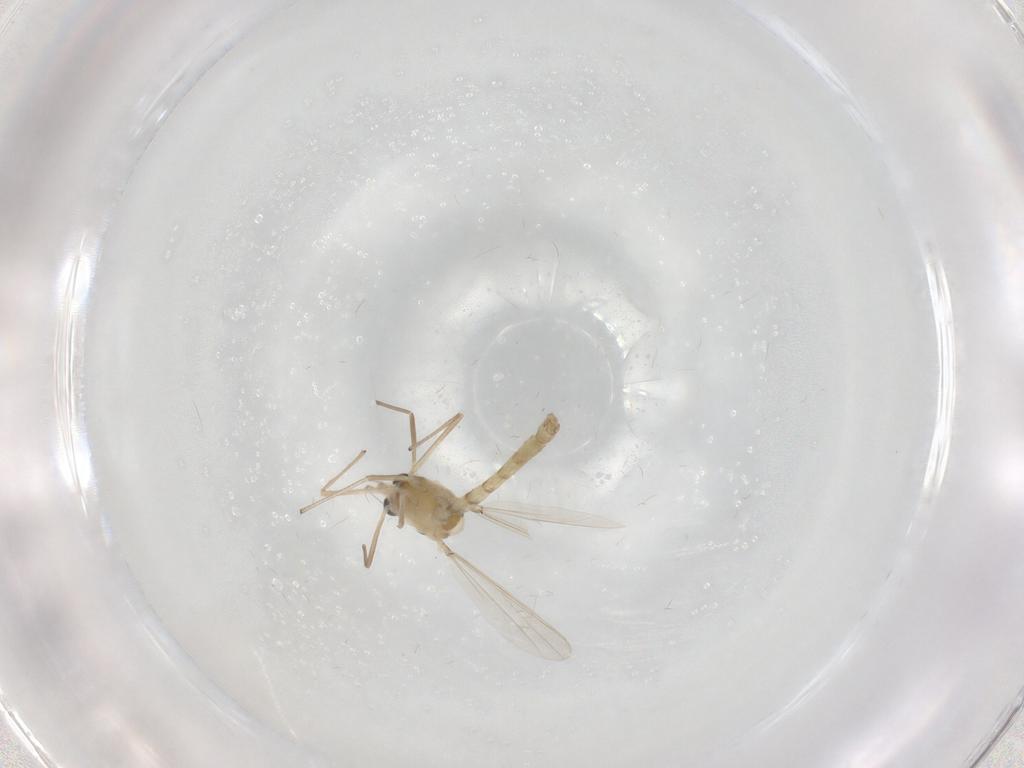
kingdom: Animalia
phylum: Arthropoda
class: Insecta
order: Diptera
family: Chironomidae
